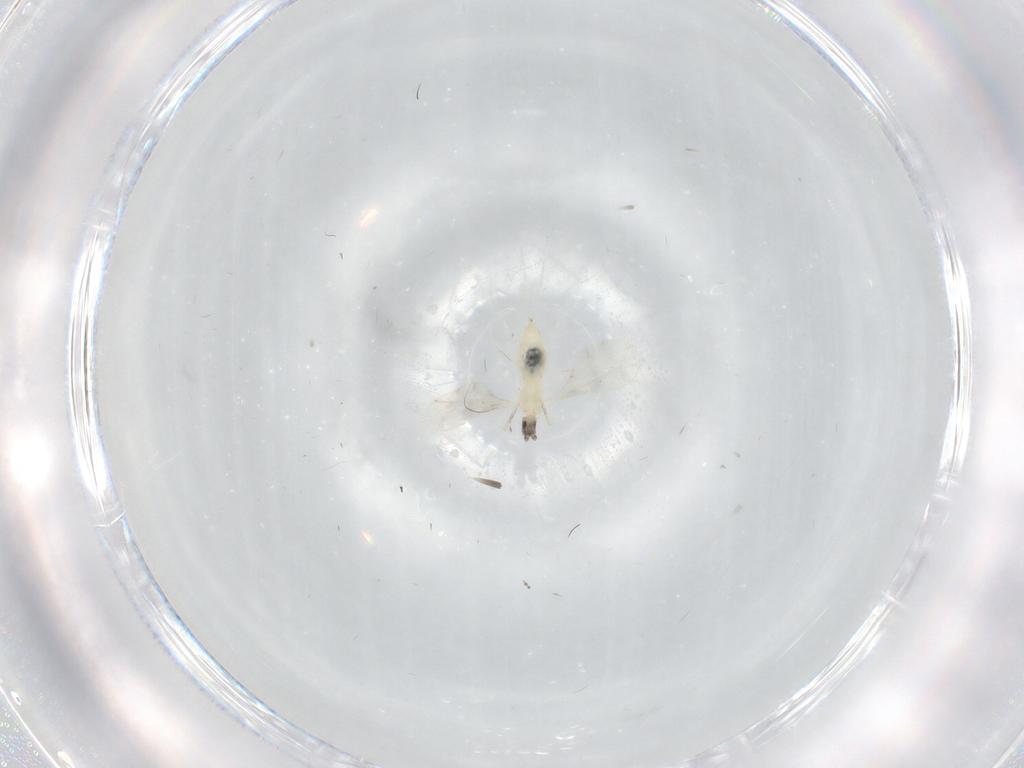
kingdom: Animalia
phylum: Arthropoda
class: Insecta
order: Diptera
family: Cecidomyiidae
